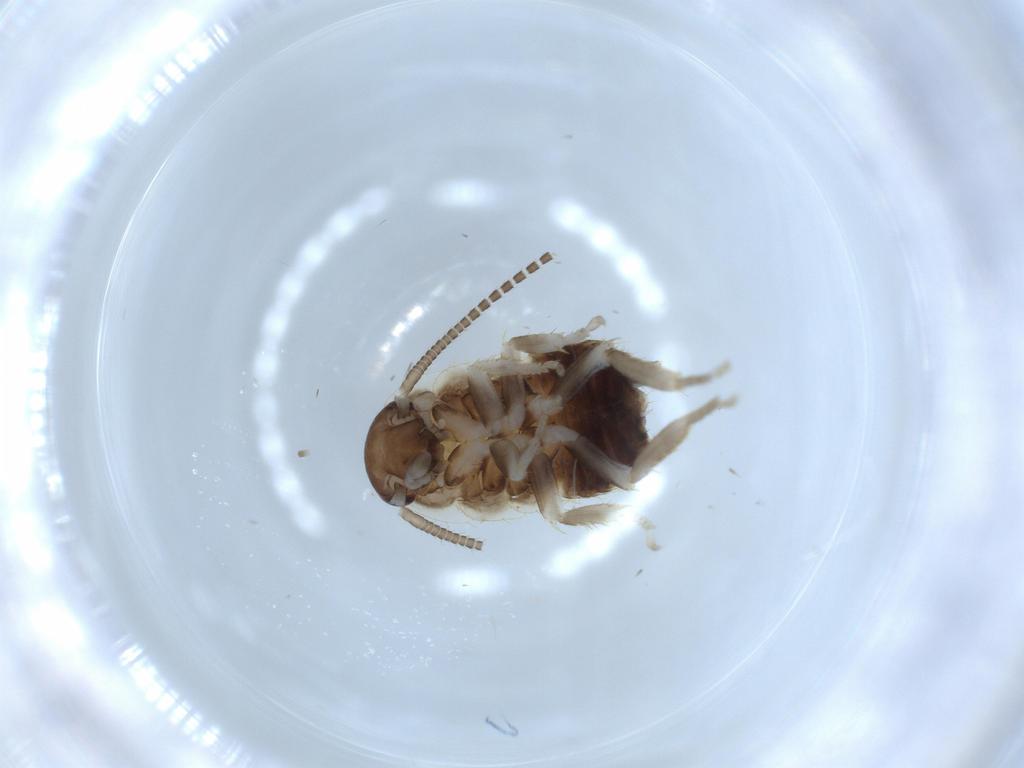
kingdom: Animalia
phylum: Arthropoda
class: Insecta
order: Blattodea
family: Ectobiidae
